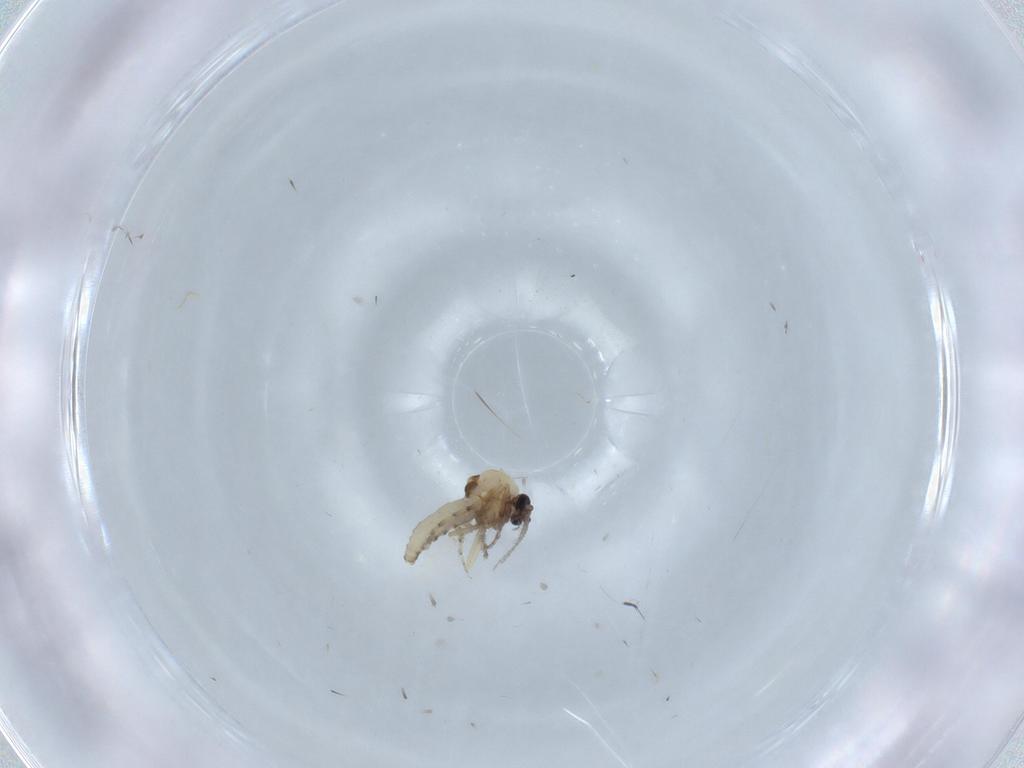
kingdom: Animalia
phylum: Arthropoda
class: Insecta
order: Diptera
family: Ceratopogonidae
